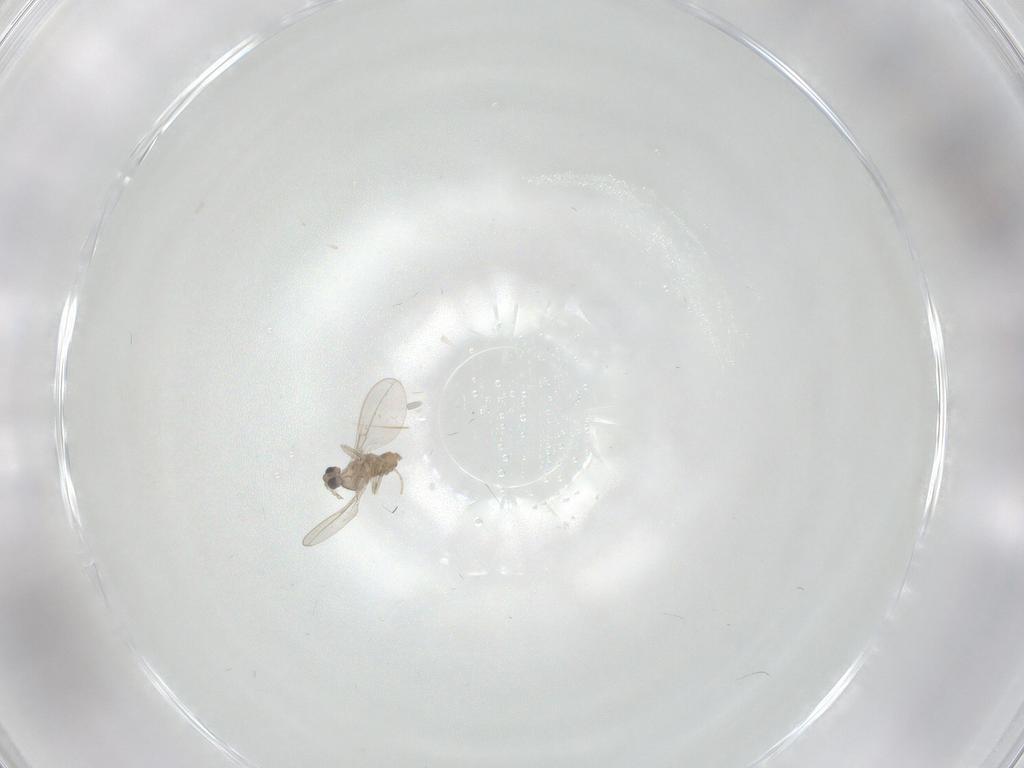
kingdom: Animalia
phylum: Arthropoda
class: Insecta
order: Diptera
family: Cecidomyiidae
